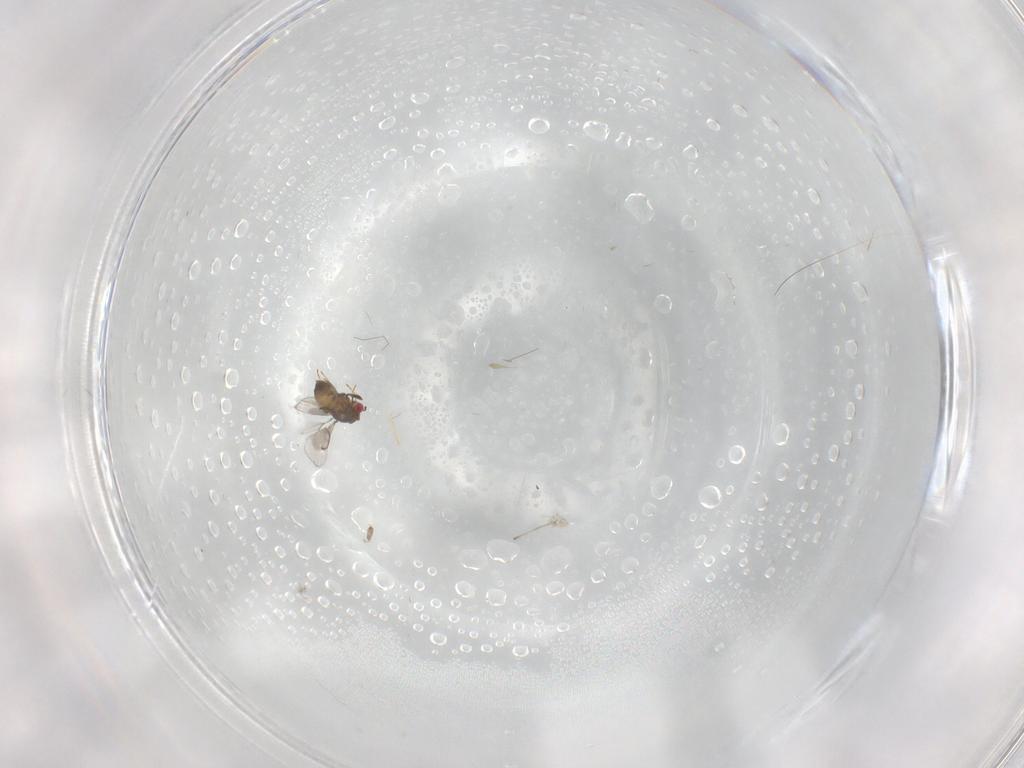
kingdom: Animalia
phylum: Arthropoda
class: Insecta
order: Hymenoptera
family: Formicidae
